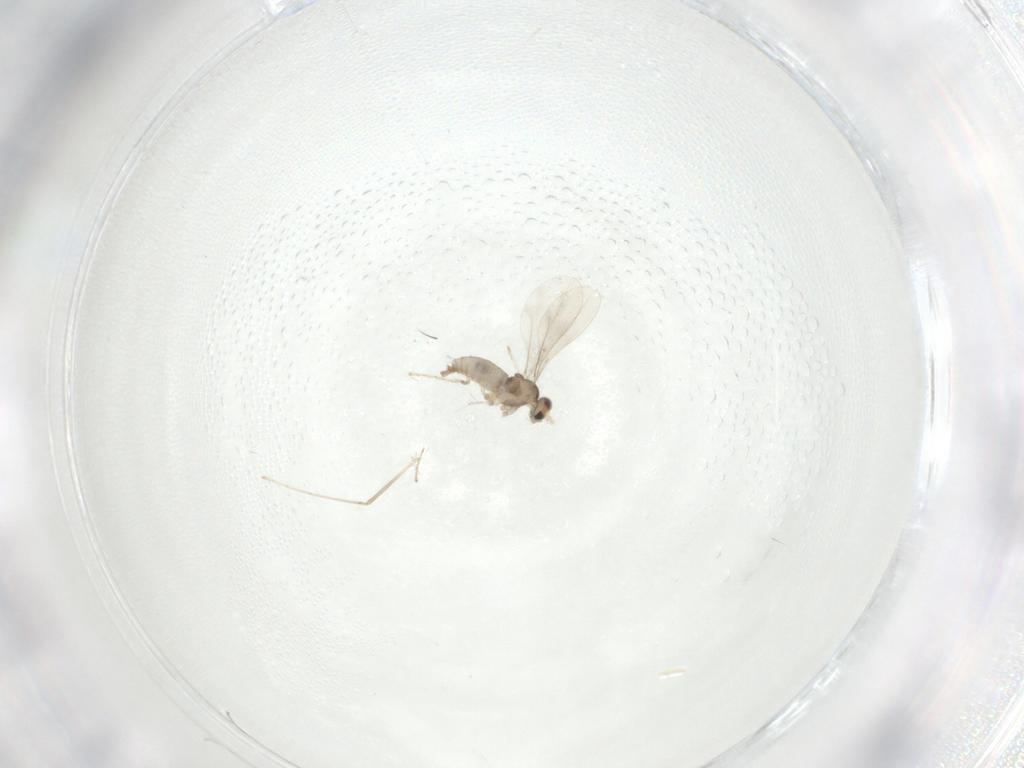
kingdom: Animalia
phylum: Arthropoda
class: Insecta
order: Diptera
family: Cecidomyiidae
